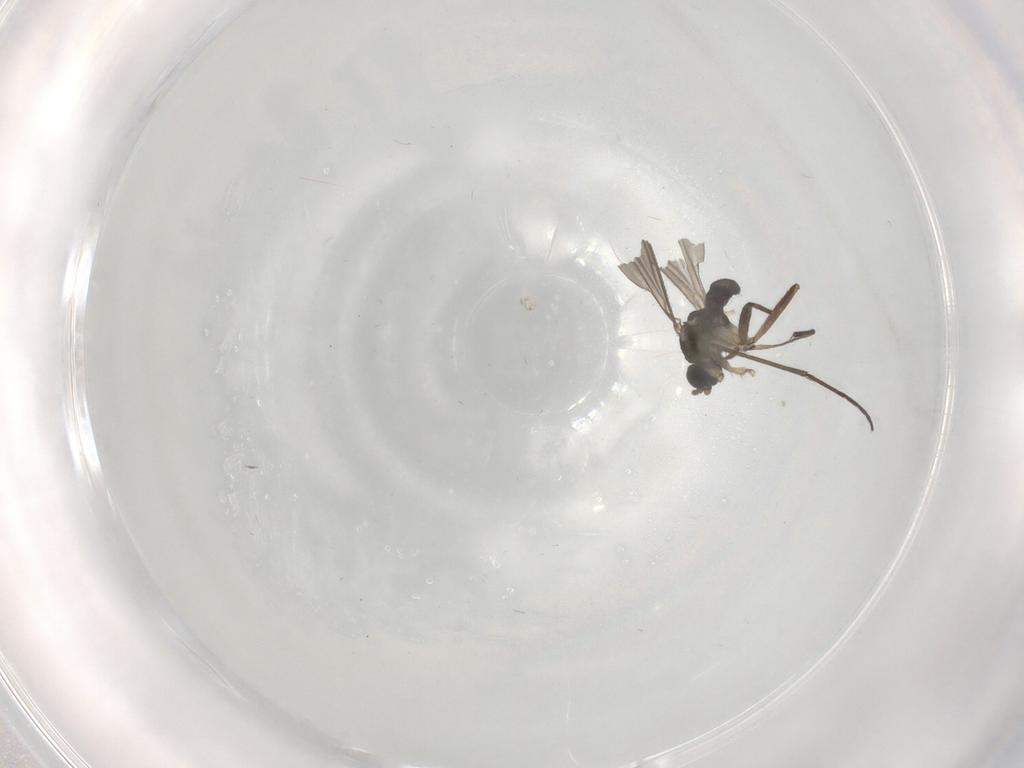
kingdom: Animalia
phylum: Arthropoda
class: Insecta
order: Diptera
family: Sciaridae
